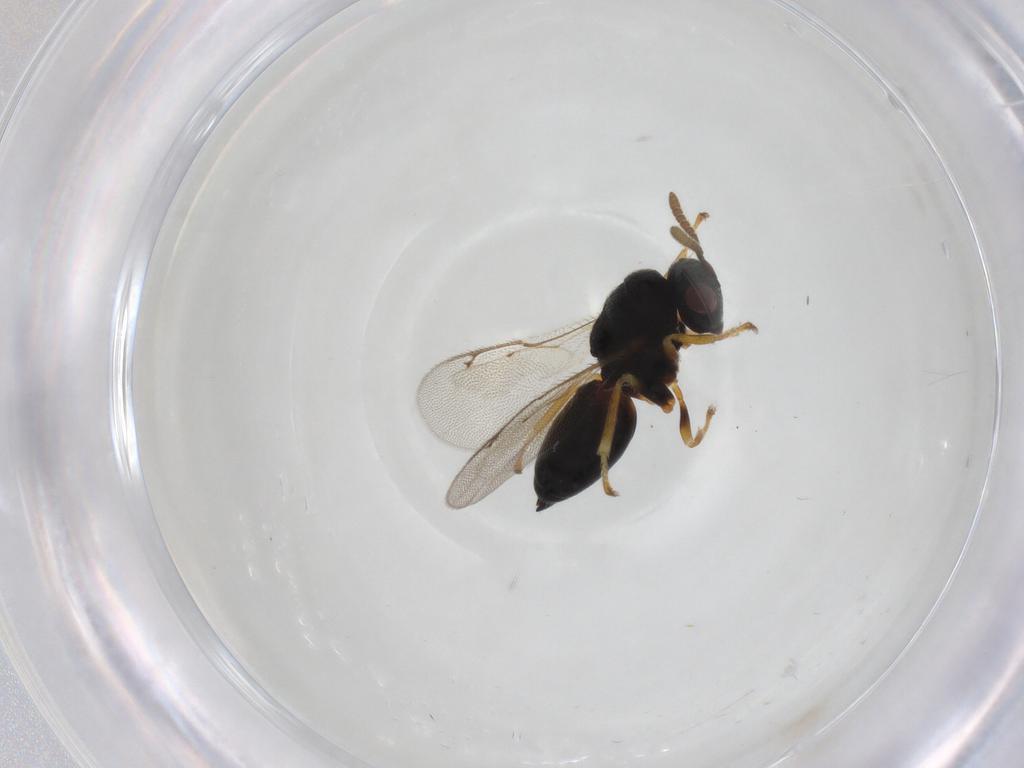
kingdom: Animalia
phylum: Arthropoda
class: Insecta
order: Hymenoptera
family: Pteromalidae
